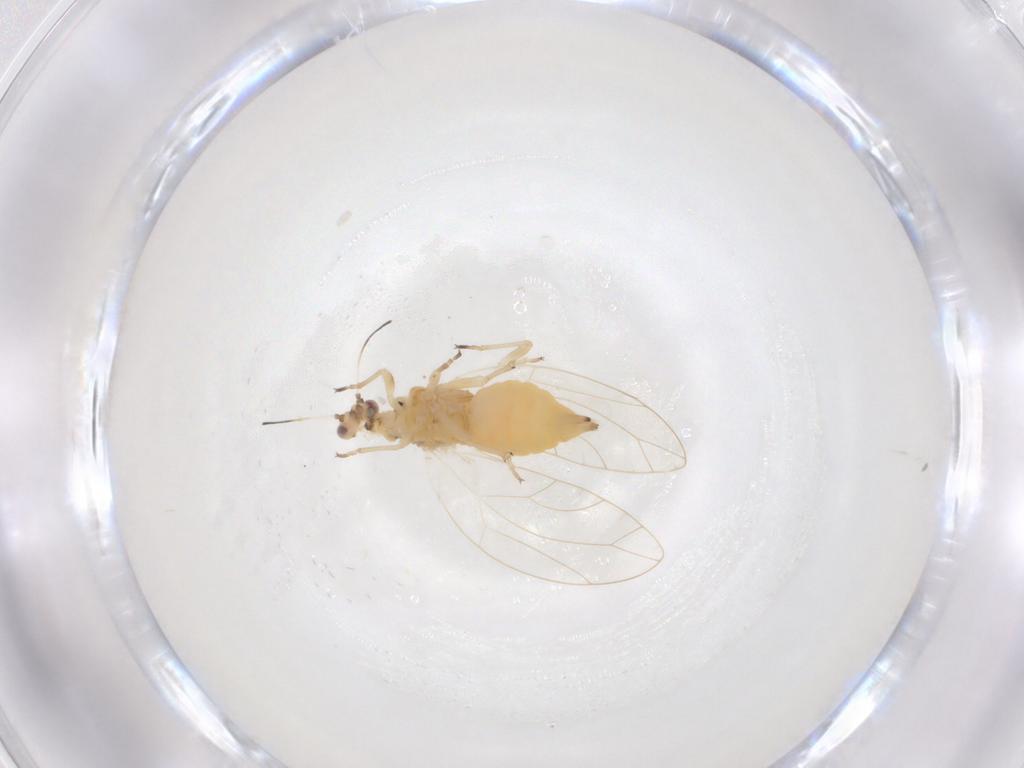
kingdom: Animalia
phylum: Arthropoda
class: Insecta
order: Hemiptera
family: Triozidae
